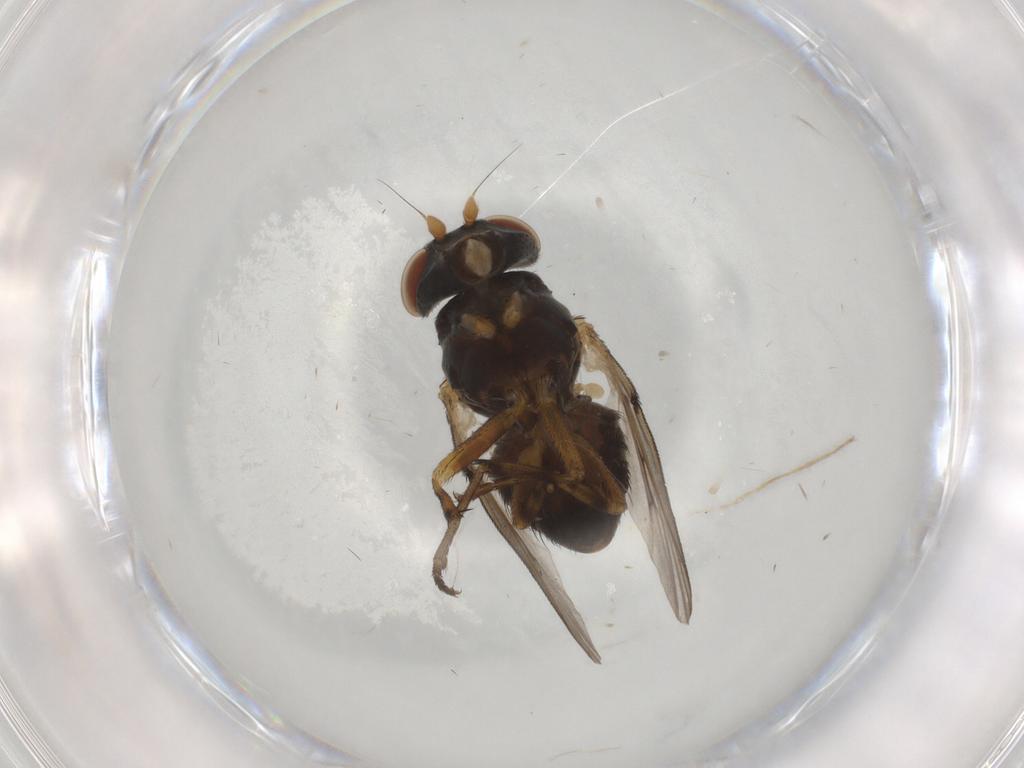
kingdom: Animalia
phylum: Arthropoda
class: Insecta
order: Diptera
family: Odiniidae
